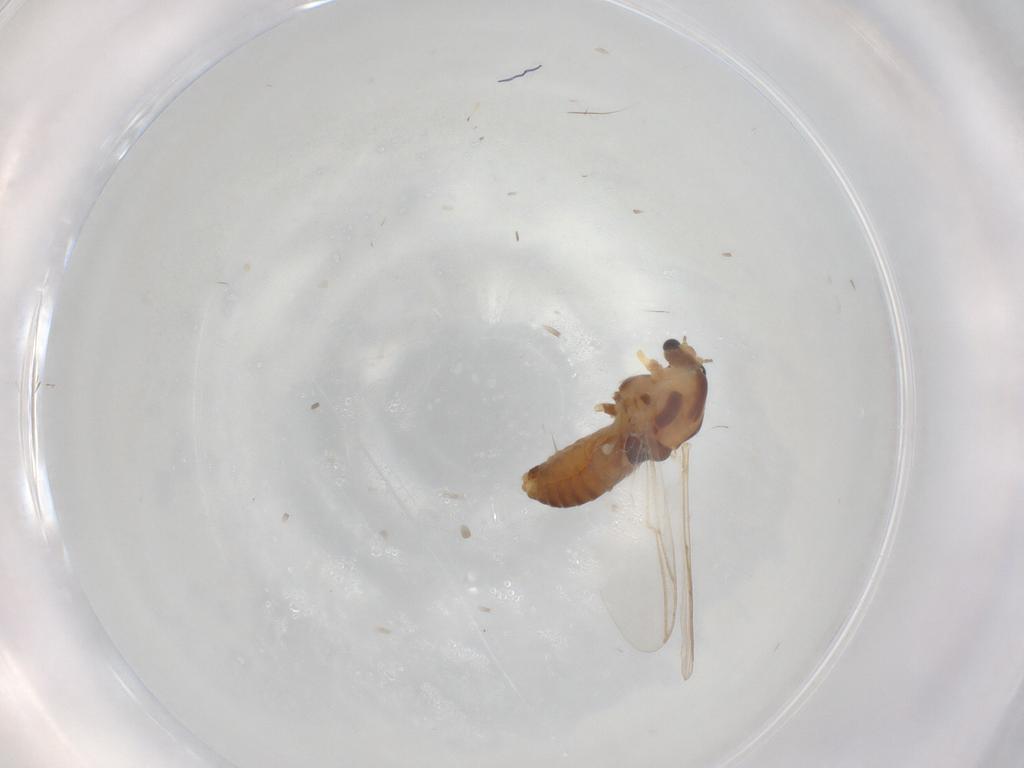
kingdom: Animalia
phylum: Arthropoda
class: Insecta
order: Diptera
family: Chironomidae
